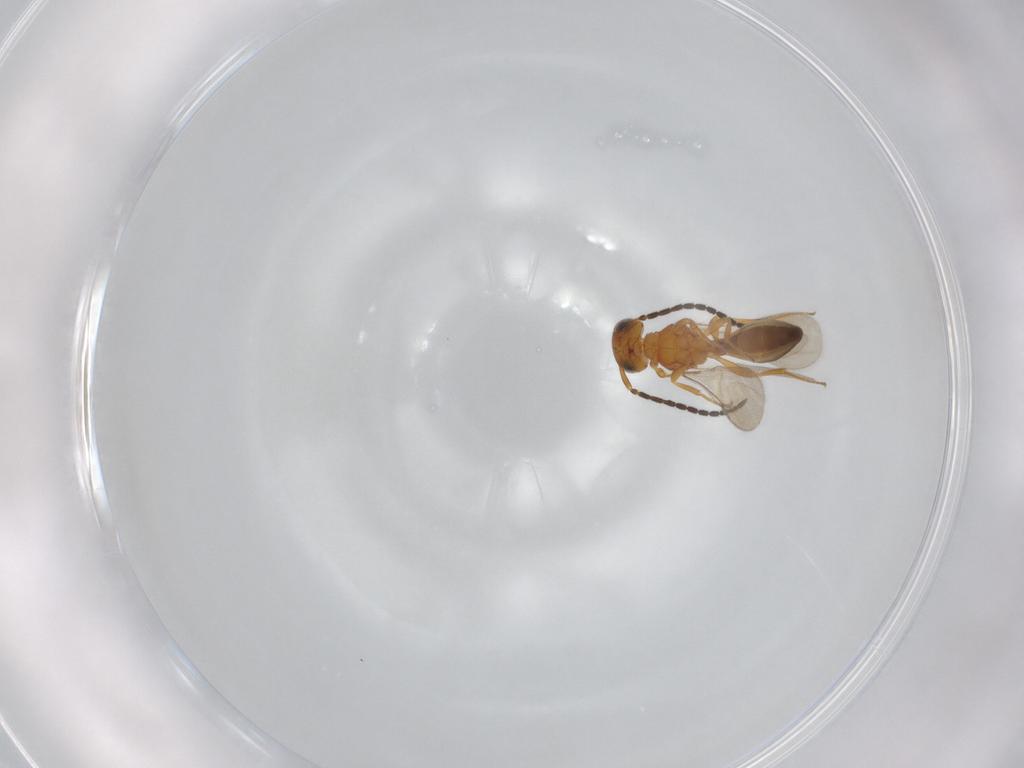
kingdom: Animalia
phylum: Arthropoda
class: Insecta
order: Hymenoptera
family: Scelionidae
